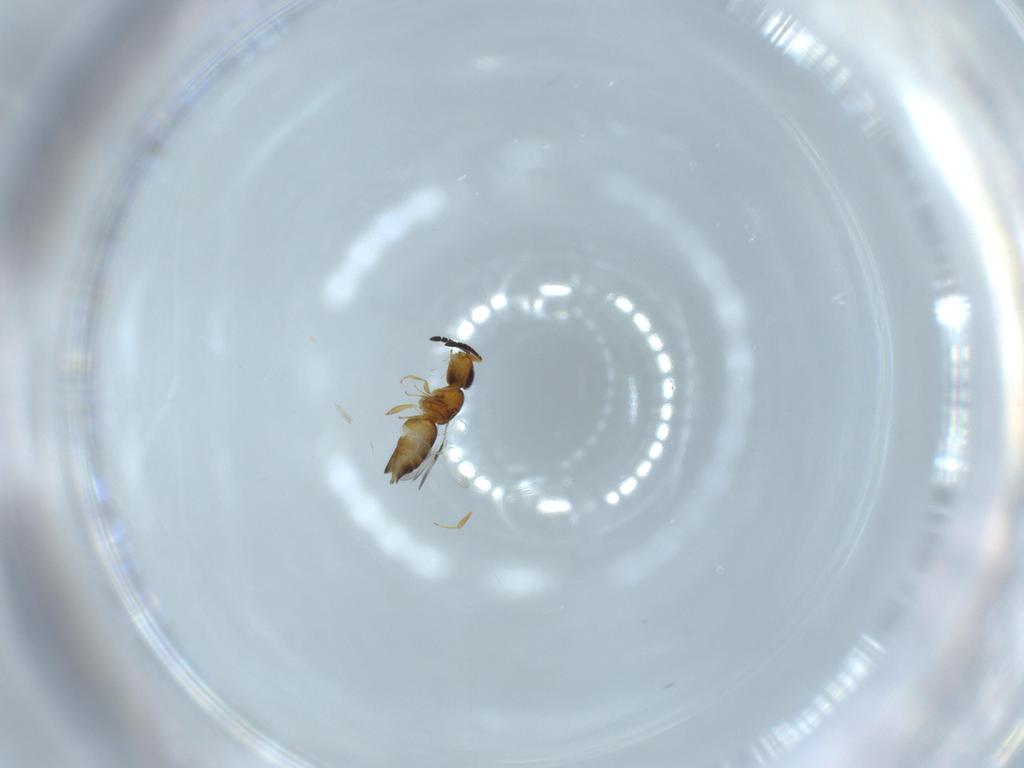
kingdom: Animalia
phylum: Arthropoda
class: Insecta
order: Hymenoptera
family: Ceraphronidae
